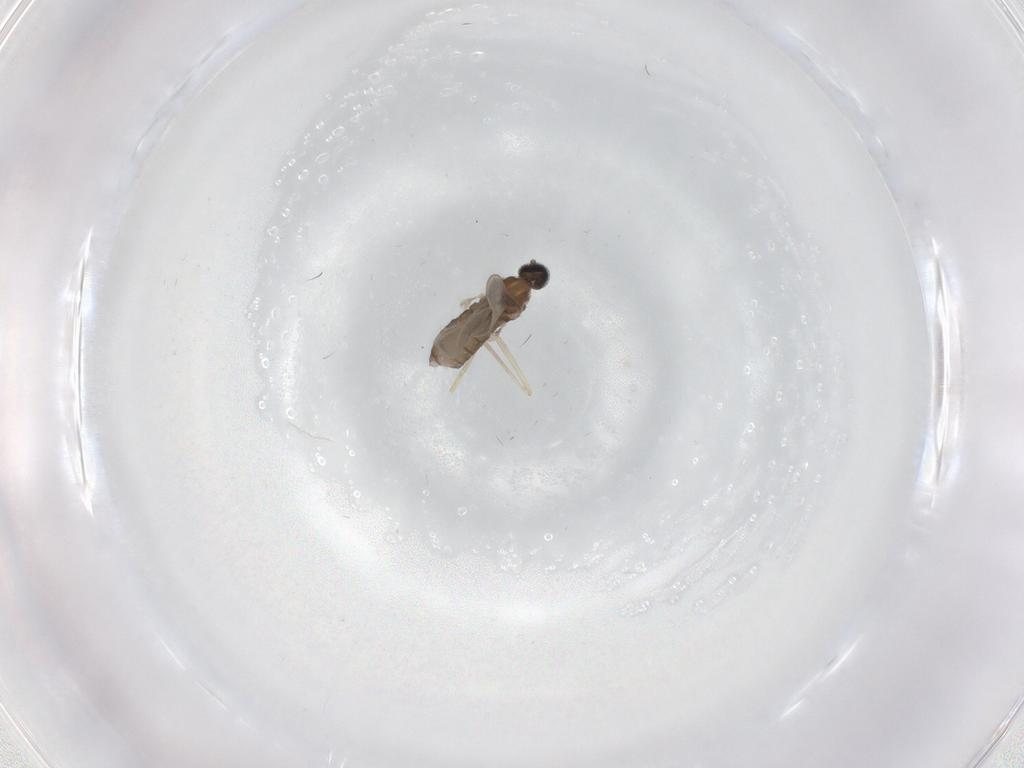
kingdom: Animalia
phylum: Arthropoda
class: Insecta
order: Diptera
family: Cecidomyiidae
